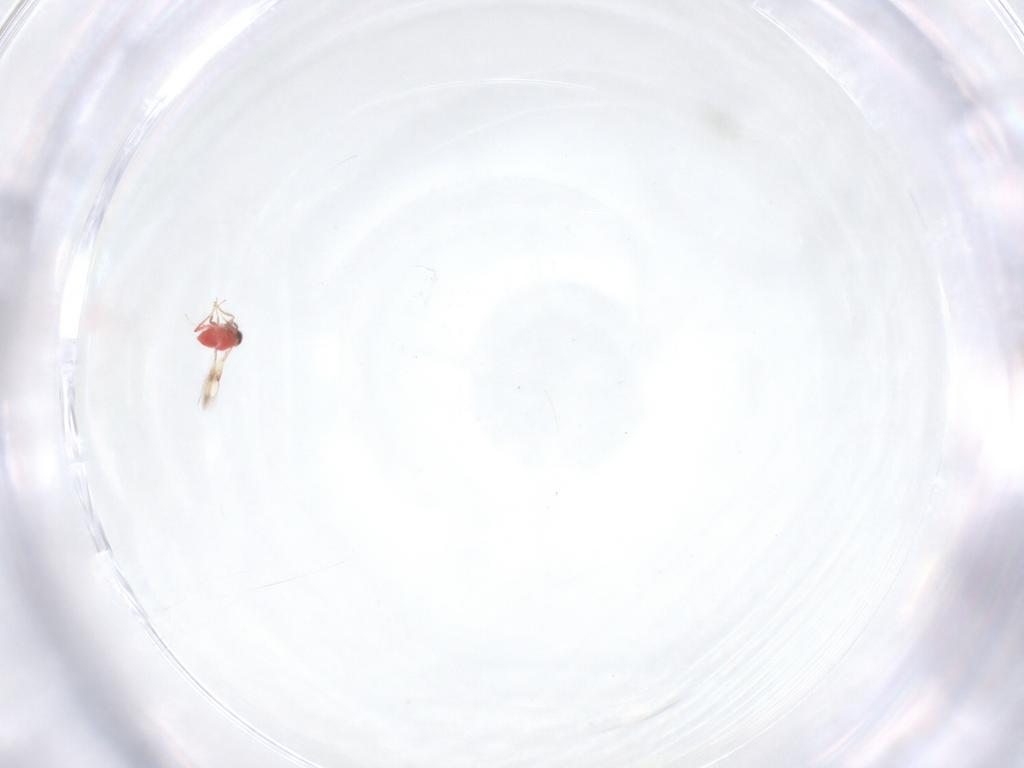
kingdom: Animalia
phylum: Arthropoda
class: Insecta
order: Hymenoptera
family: Trichogrammatidae
